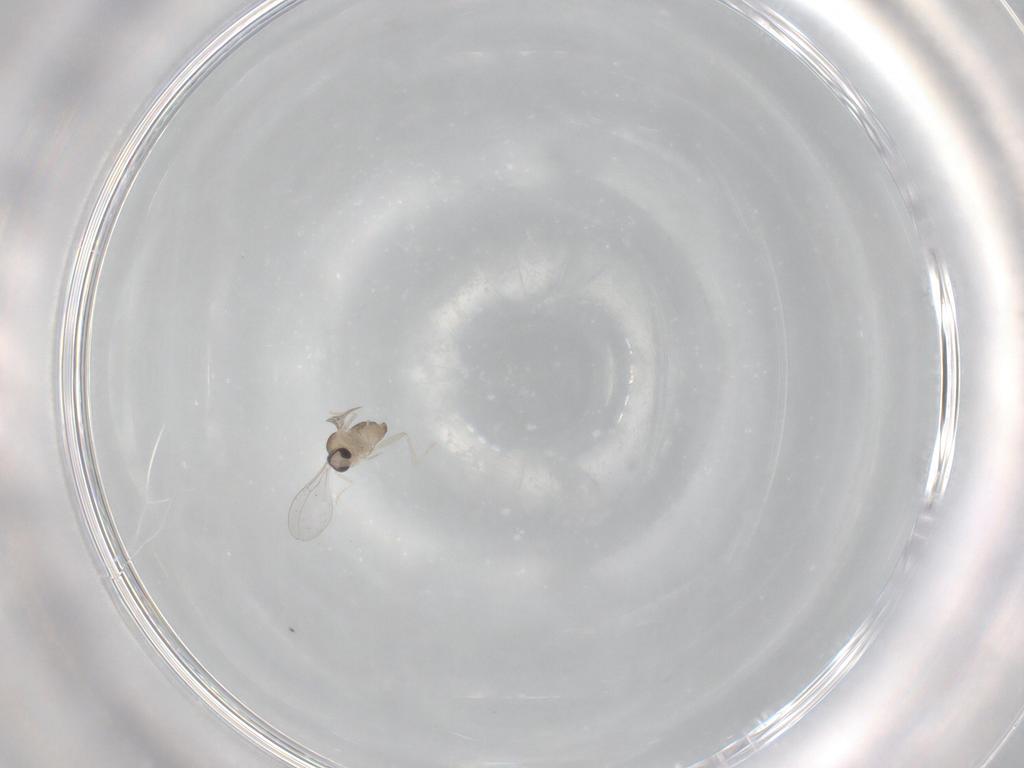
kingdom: Animalia
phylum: Arthropoda
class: Insecta
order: Diptera
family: Cecidomyiidae
